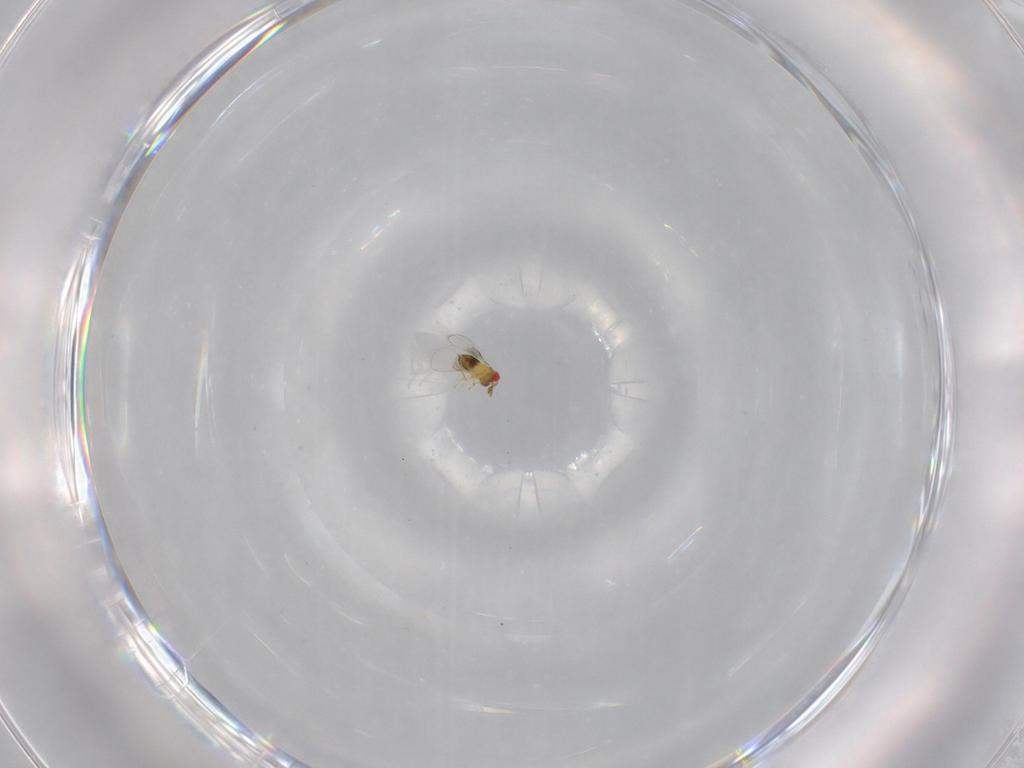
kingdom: Animalia
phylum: Arthropoda
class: Insecta
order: Hymenoptera
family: Trichogrammatidae
